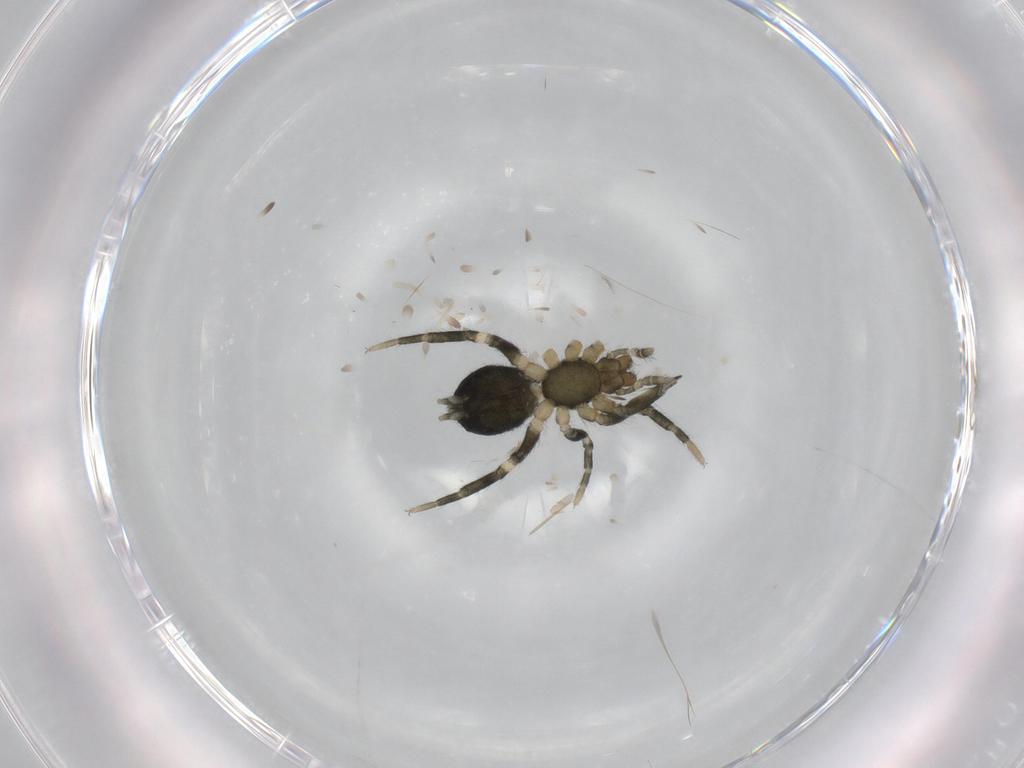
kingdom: Animalia
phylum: Arthropoda
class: Arachnida
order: Araneae
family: Gnaphosidae
